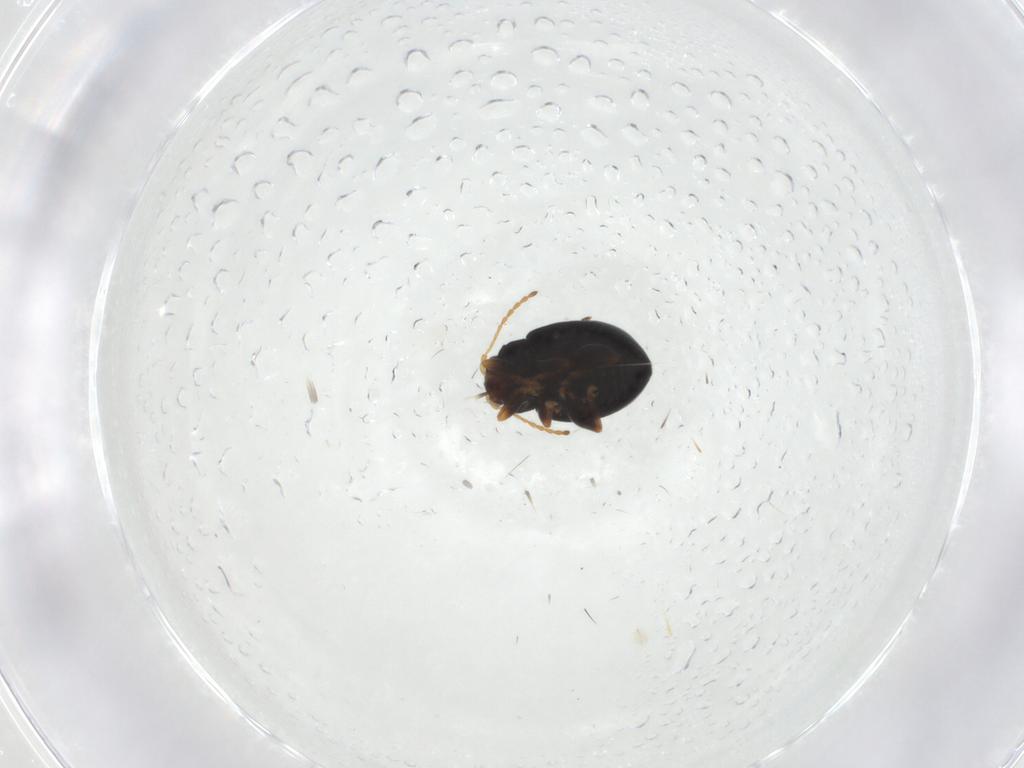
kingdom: Animalia
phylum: Arthropoda
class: Insecta
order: Coleoptera
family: Chrysomelidae
